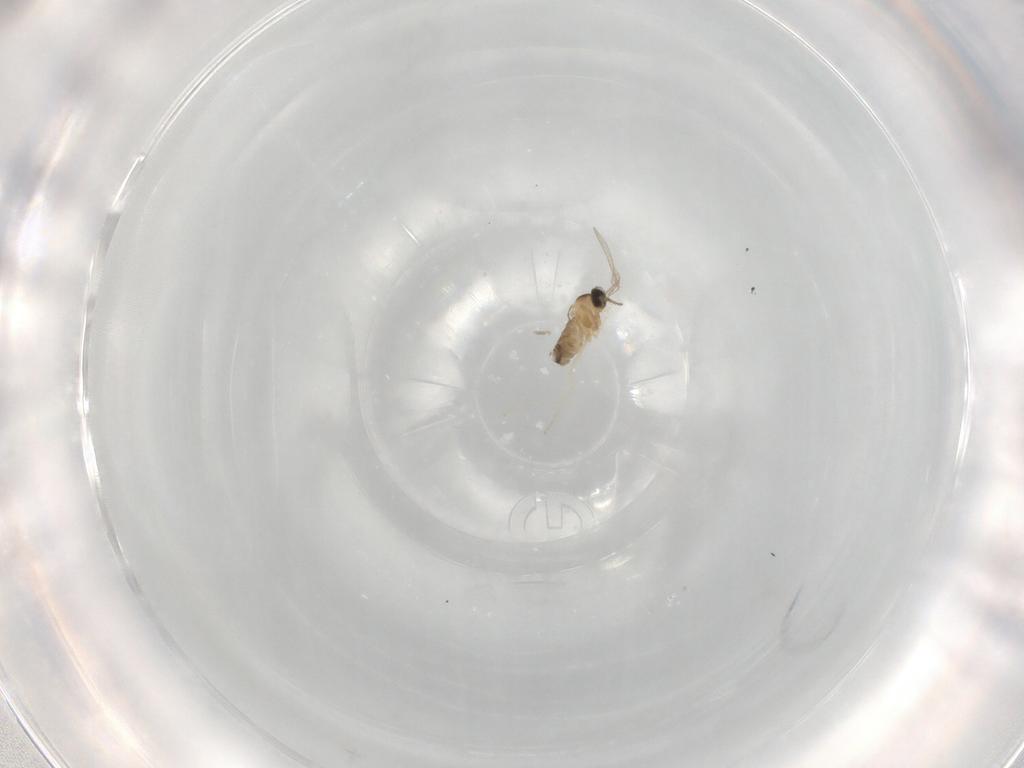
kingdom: Animalia
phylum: Arthropoda
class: Insecta
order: Diptera
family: Cecidomyiidae
